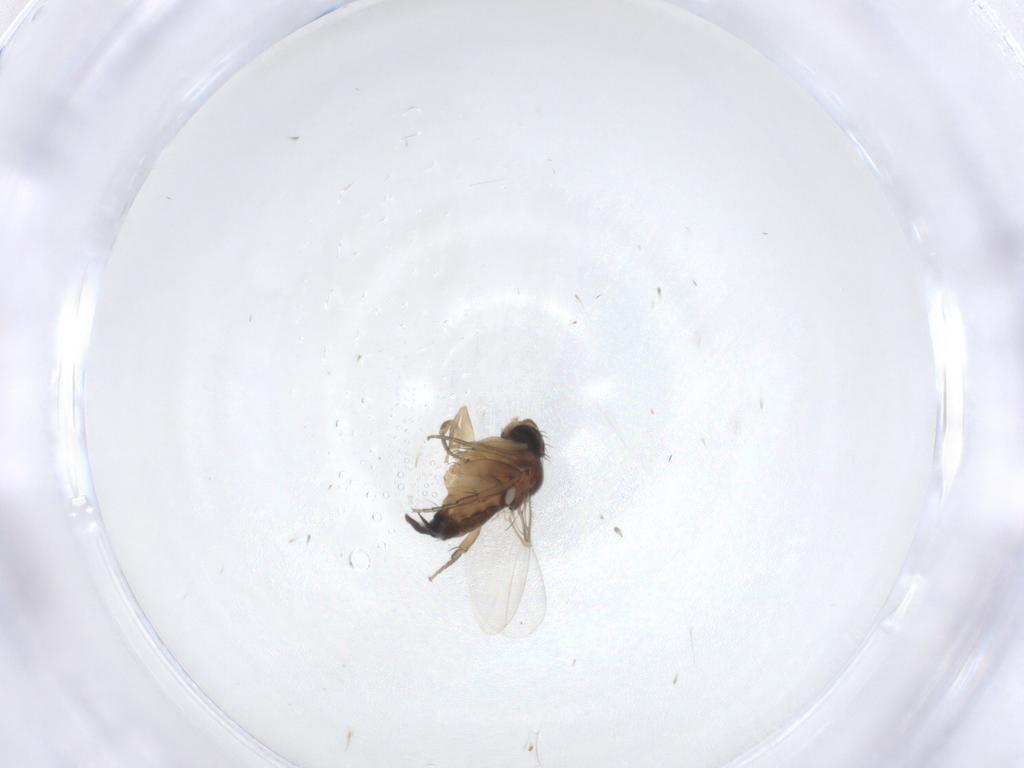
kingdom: Animalia
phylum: Arthropoda
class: Insecta
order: Diptera
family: Phoridae
